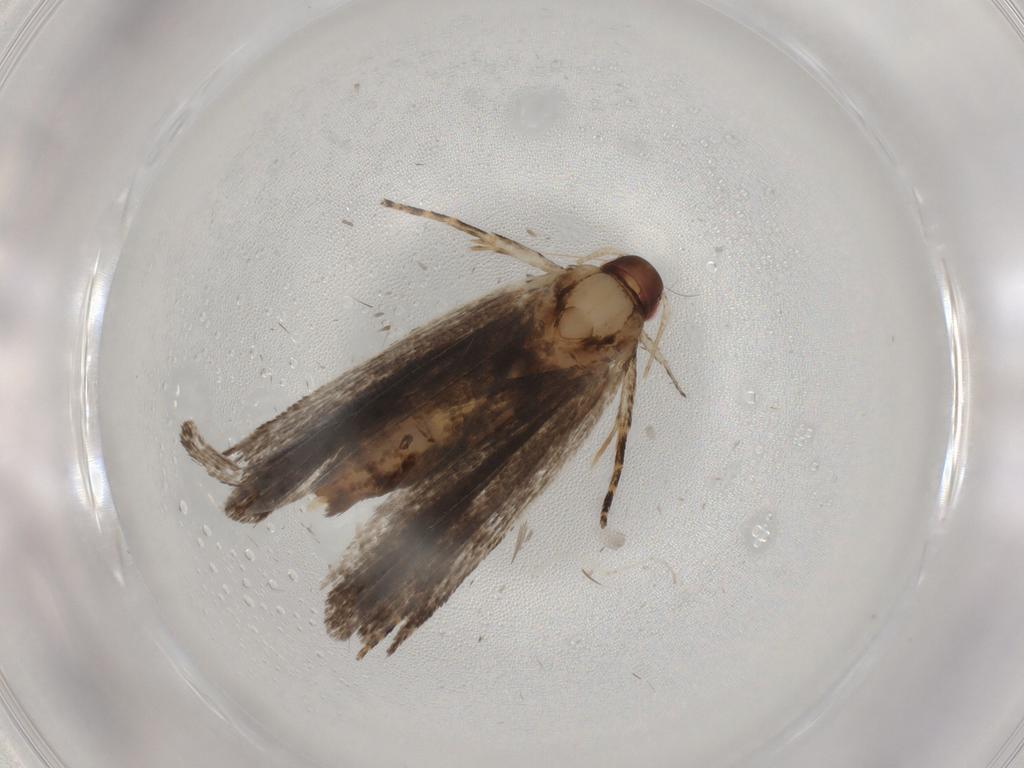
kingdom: Animalia
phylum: Arthropoda
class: Insecta
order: Lepidoptera
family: Gelechiidae
